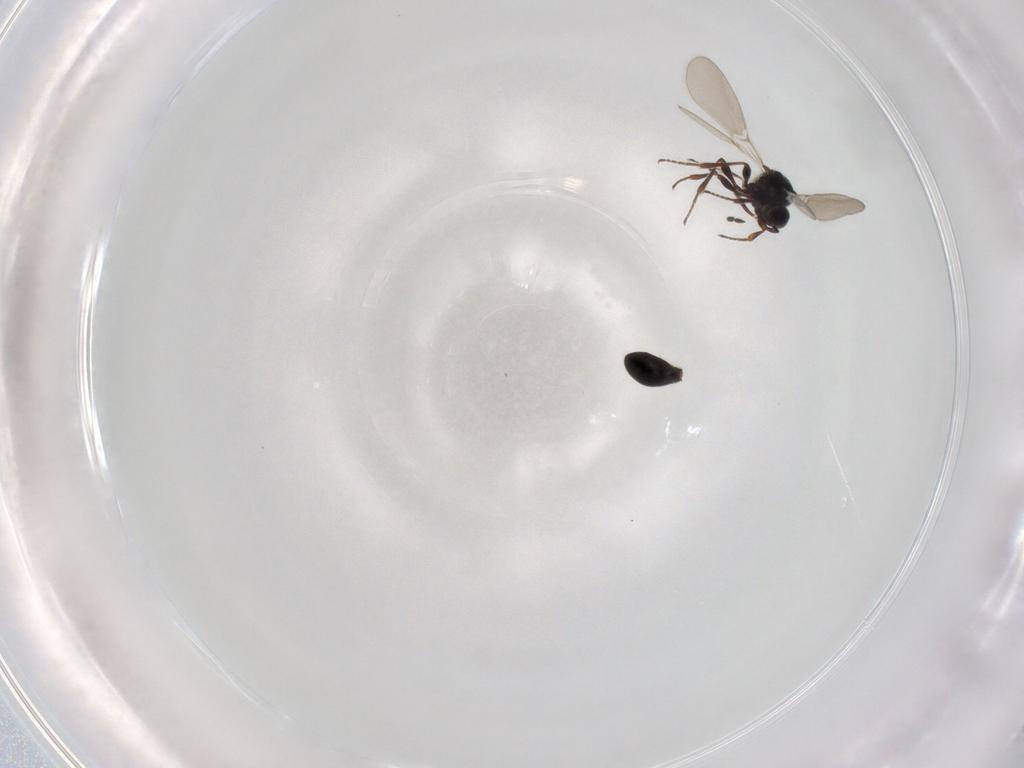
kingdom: Animalia
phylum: Arthropoda
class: Insecta
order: Hymenoptera
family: Platygastridae
